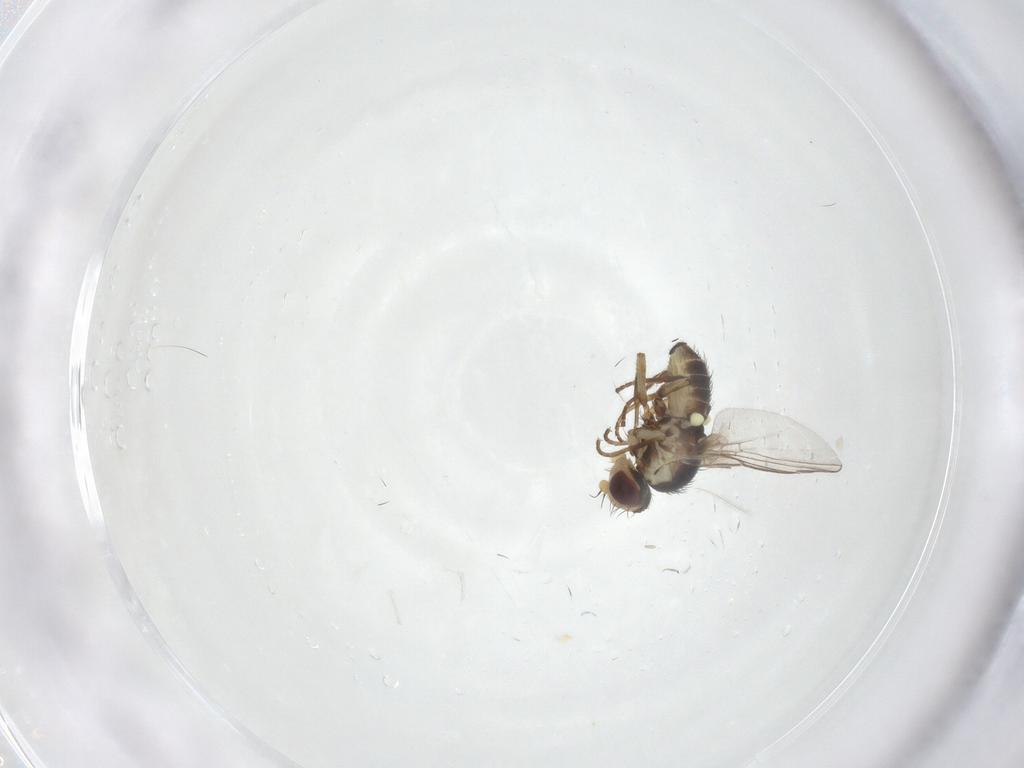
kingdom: Animalia
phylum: Arthropoda
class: Insecta
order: Diptera
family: Agromyzidae
